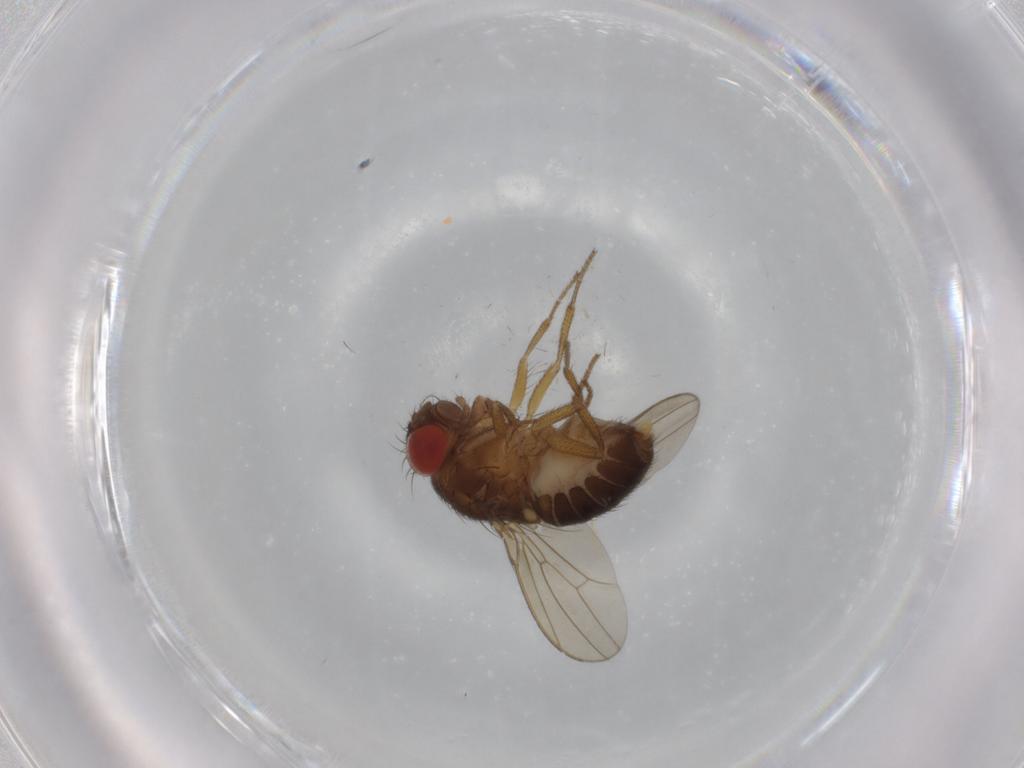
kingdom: Animalia
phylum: Arthropoda
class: Insecta
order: Diptera
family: Drosophilidae
